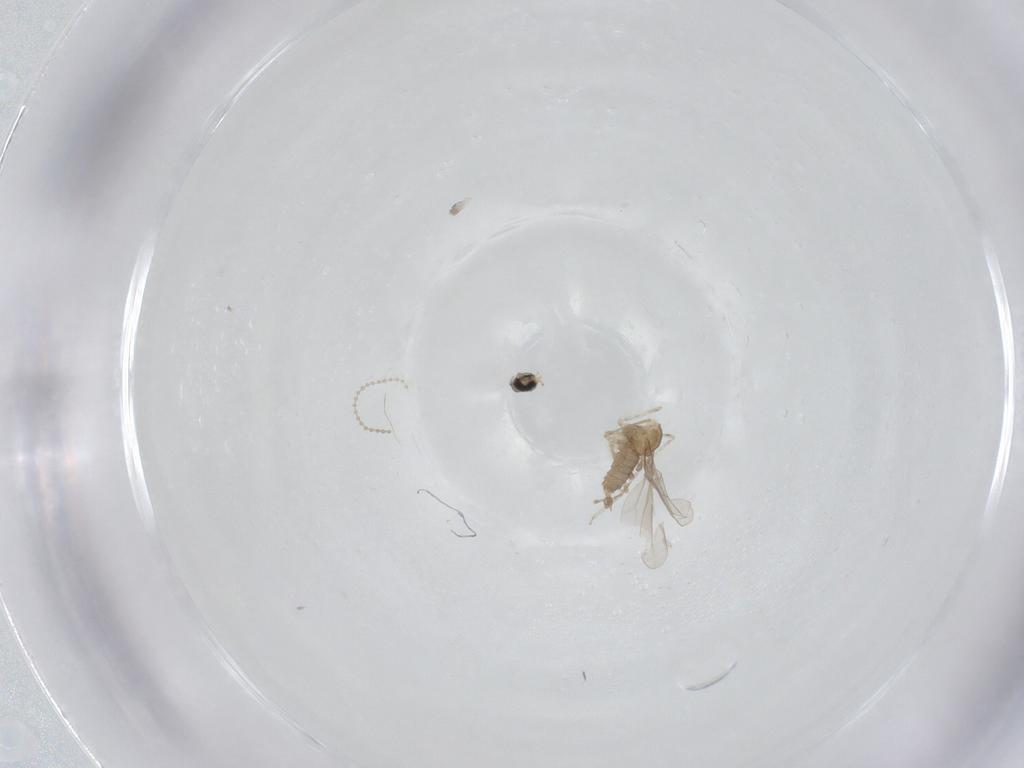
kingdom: Animalia
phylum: Arthropoda
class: Insecta
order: Diptera
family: Cecidomyiidae
